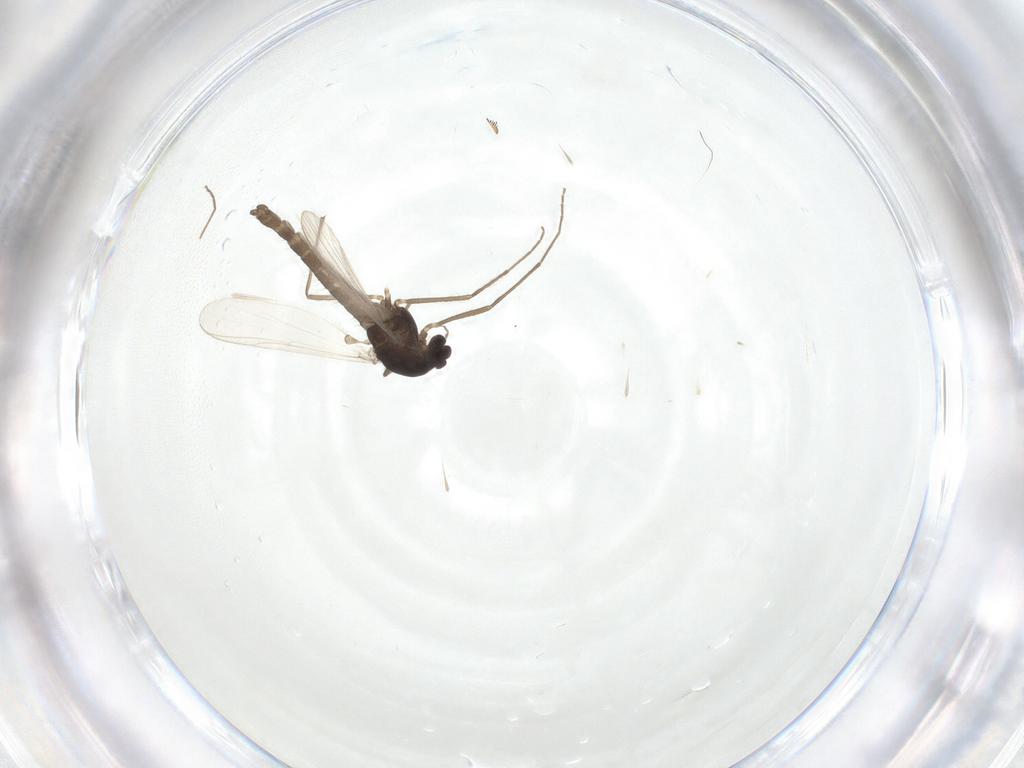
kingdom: Animalia
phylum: Arthropoda
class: Insecta
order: Diptera
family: Chironomidae
